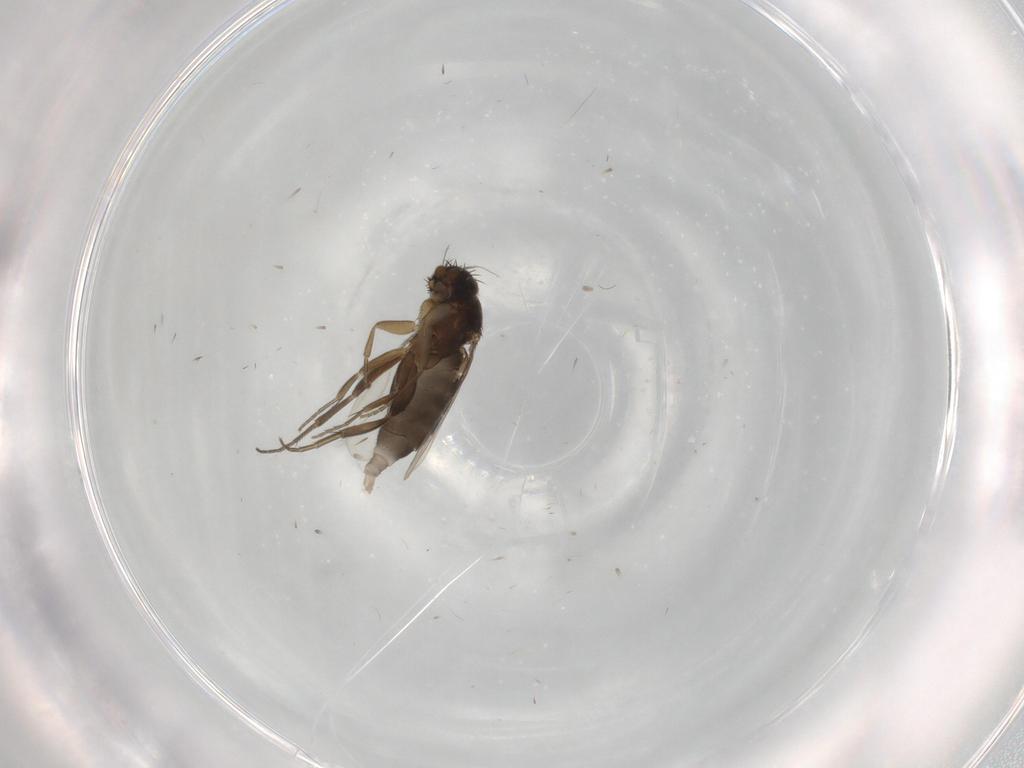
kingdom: Animalia
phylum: Arthropoda
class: Insecta
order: Diptera
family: Phoridae
